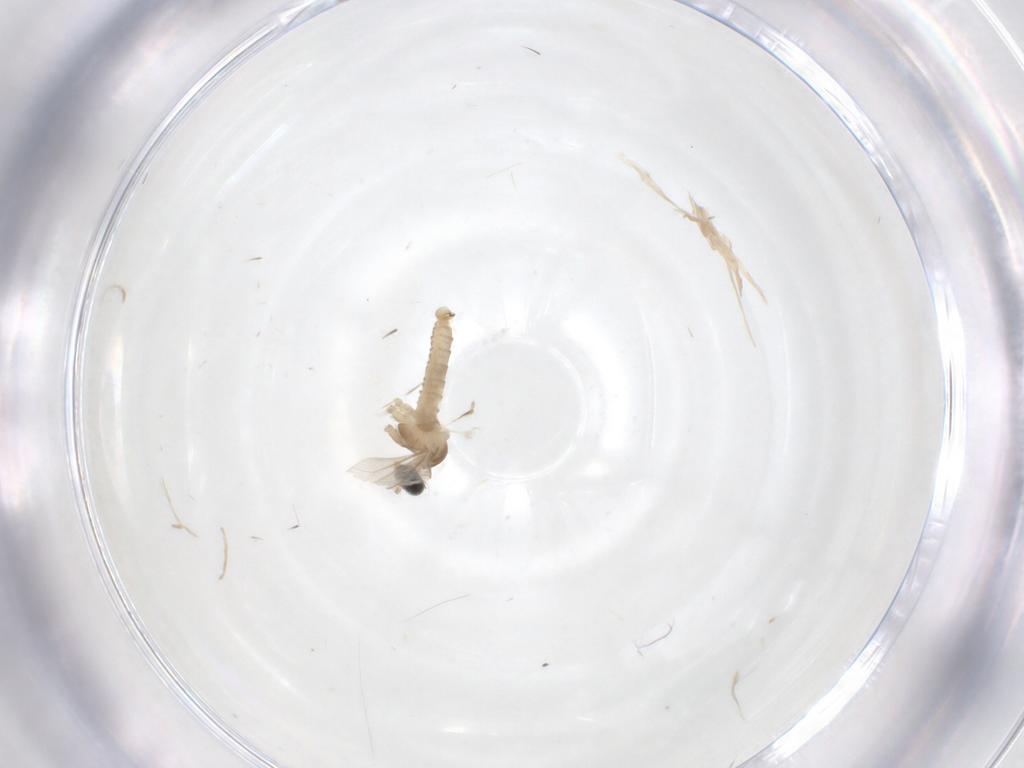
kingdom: Animalia
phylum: Arthropoda
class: Insecta
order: Diptera
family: Cecidomyiidae
